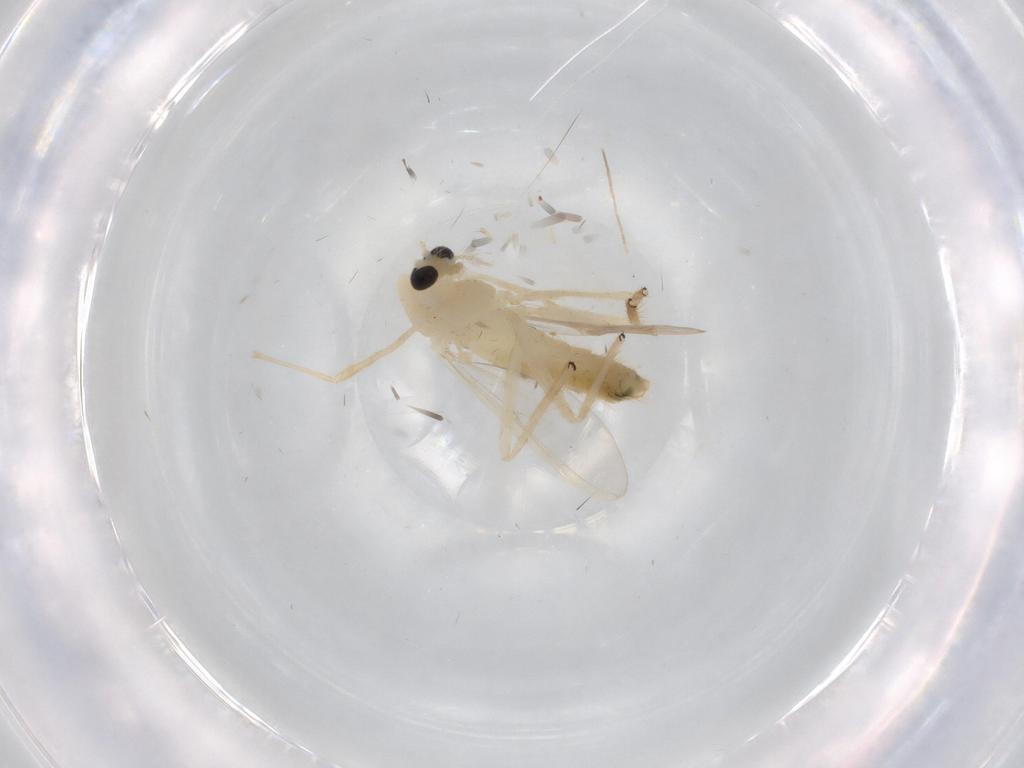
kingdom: Animalia
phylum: Arthropoda
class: Insecta
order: Diptera
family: Chironomidae
